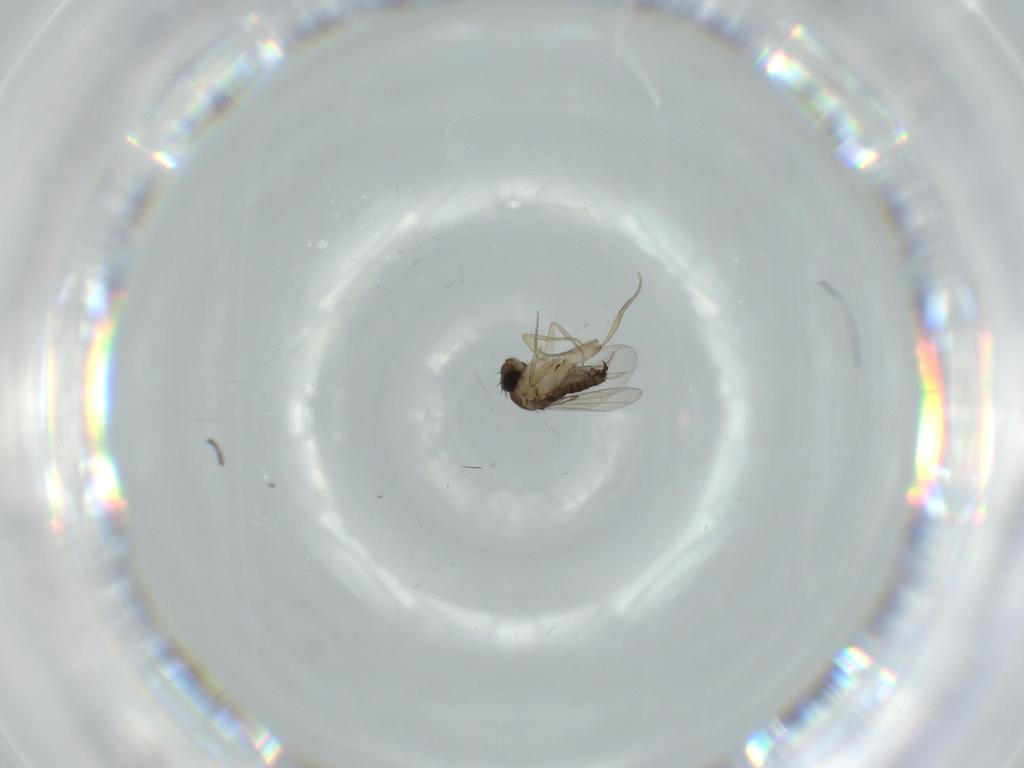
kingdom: Animalia
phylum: Arthropoda
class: Insecta
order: Diptera
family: Phoridae
